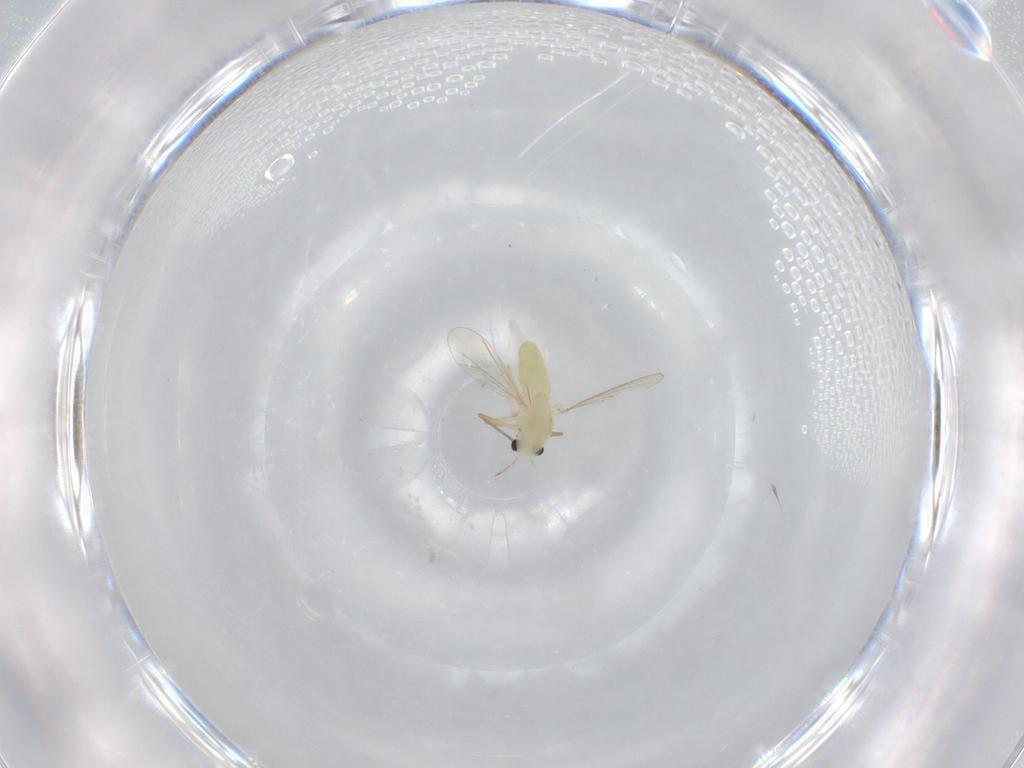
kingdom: Animalia
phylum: Arthropoda
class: Insecta
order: Diptera
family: Chironomidae
